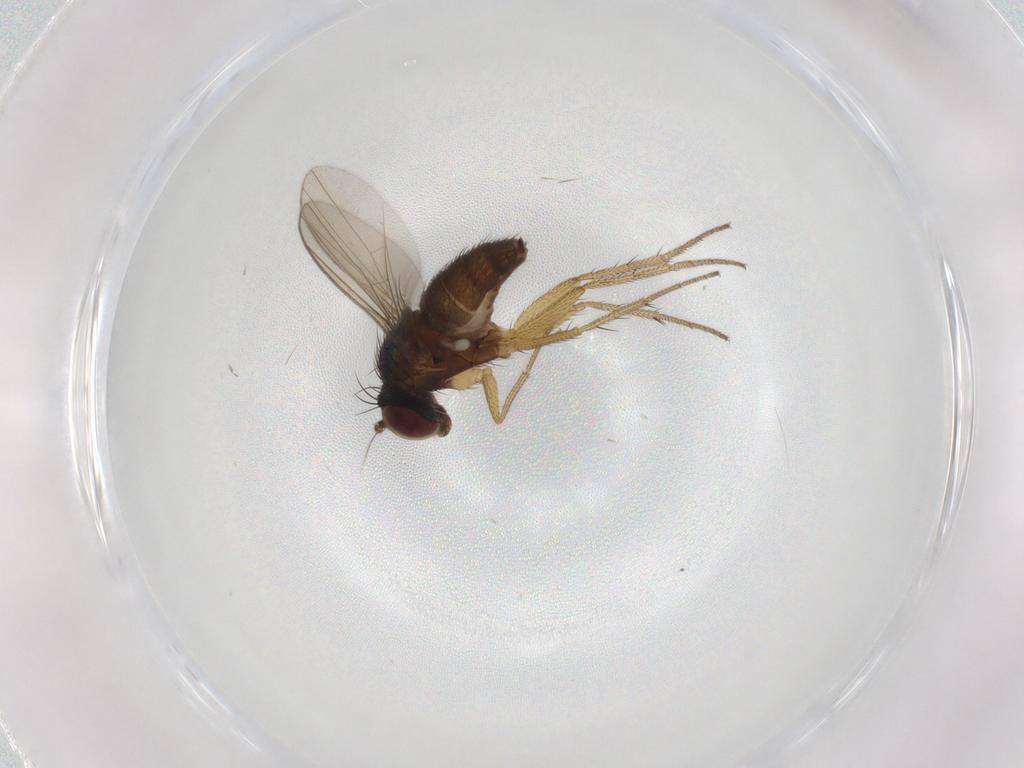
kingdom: Animalia
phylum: Arthropoda
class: Insecta
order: Diptera
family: Dolichopodidae
